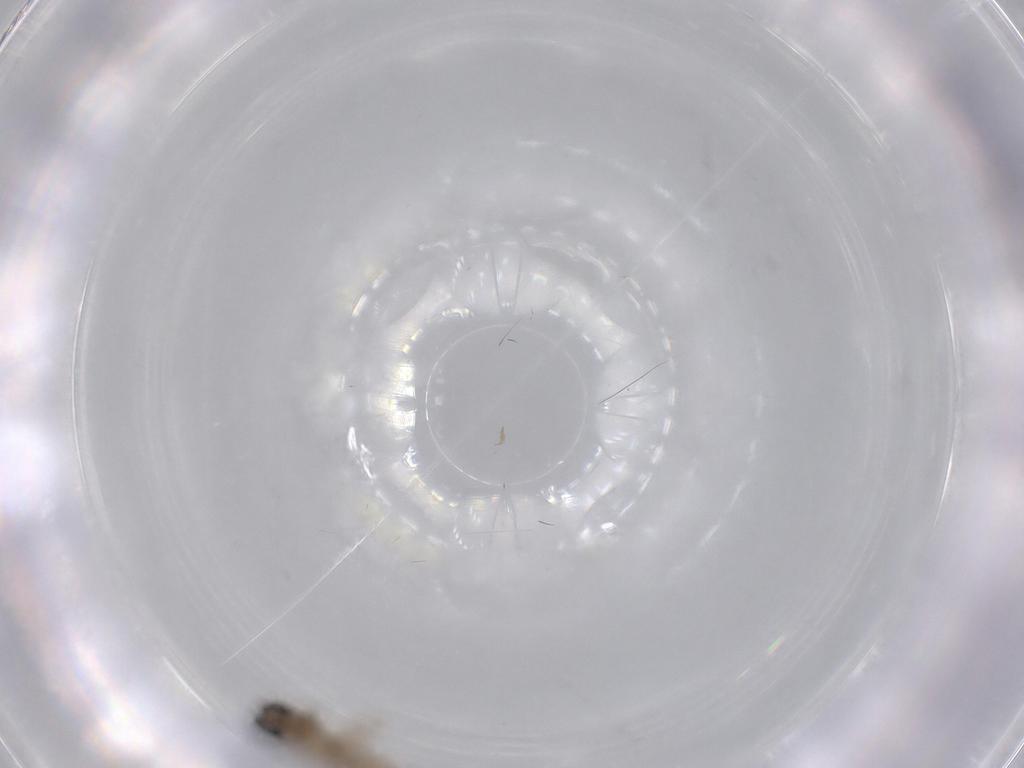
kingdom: Animalia
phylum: Arthropoda
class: Insecta
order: Diptera
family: Ceratopogonidae
